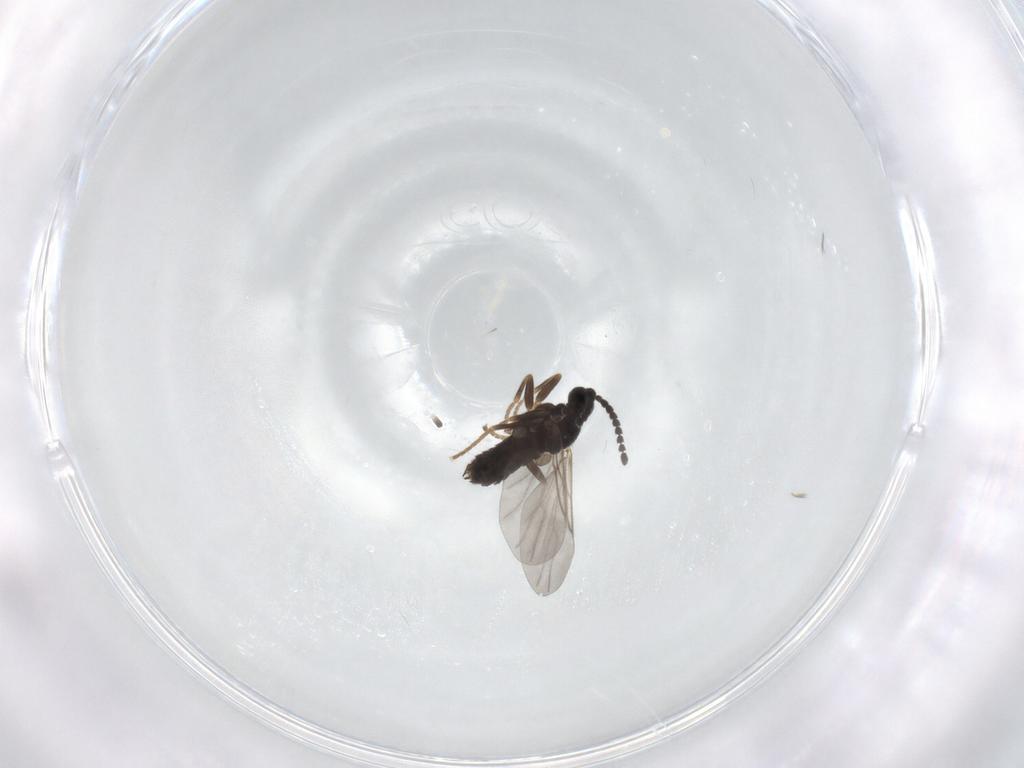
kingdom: Animalia
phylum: Arthropoda
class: Insecta
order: Diptera
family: Scatopsidae
